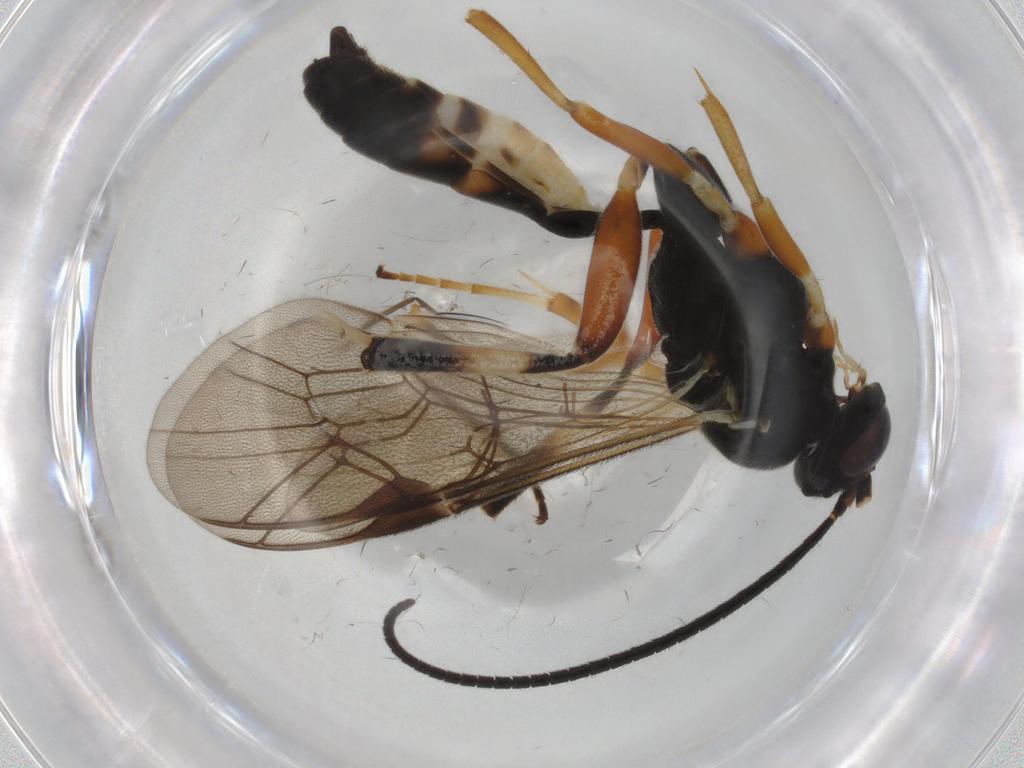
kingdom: Animalia
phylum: Arthropoda
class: Insecta
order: Hymenoptera
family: Ichneumonidae
